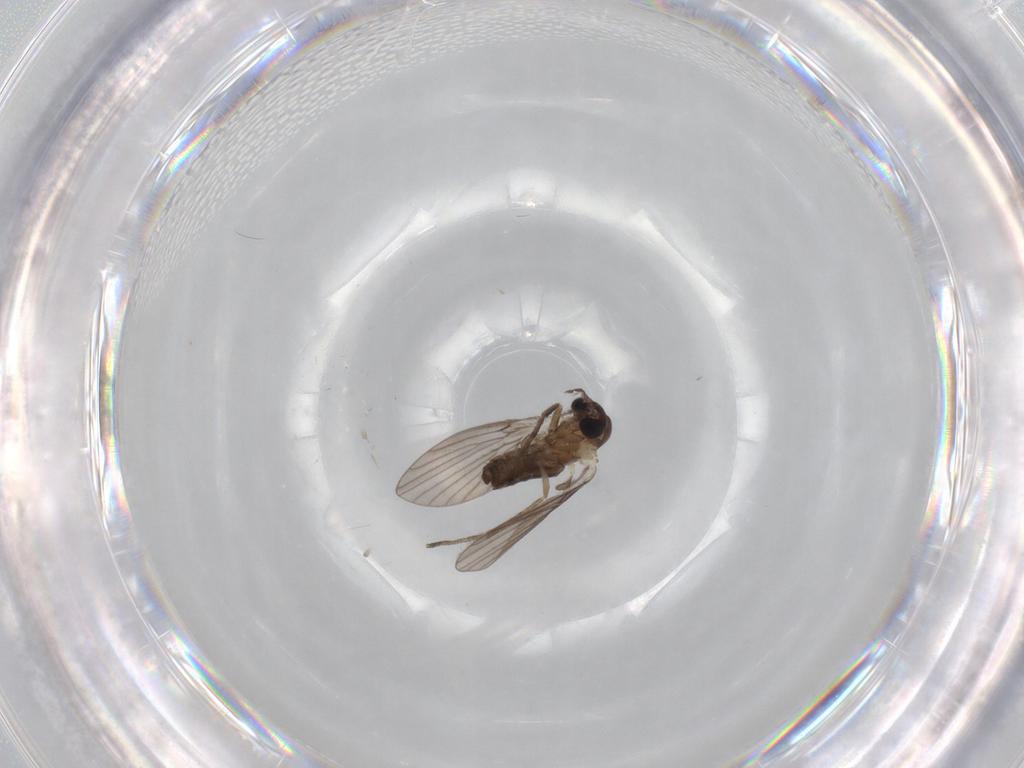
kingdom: Animalia
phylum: Arthropoda
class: Insecta
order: Diptera
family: Psychodidae
